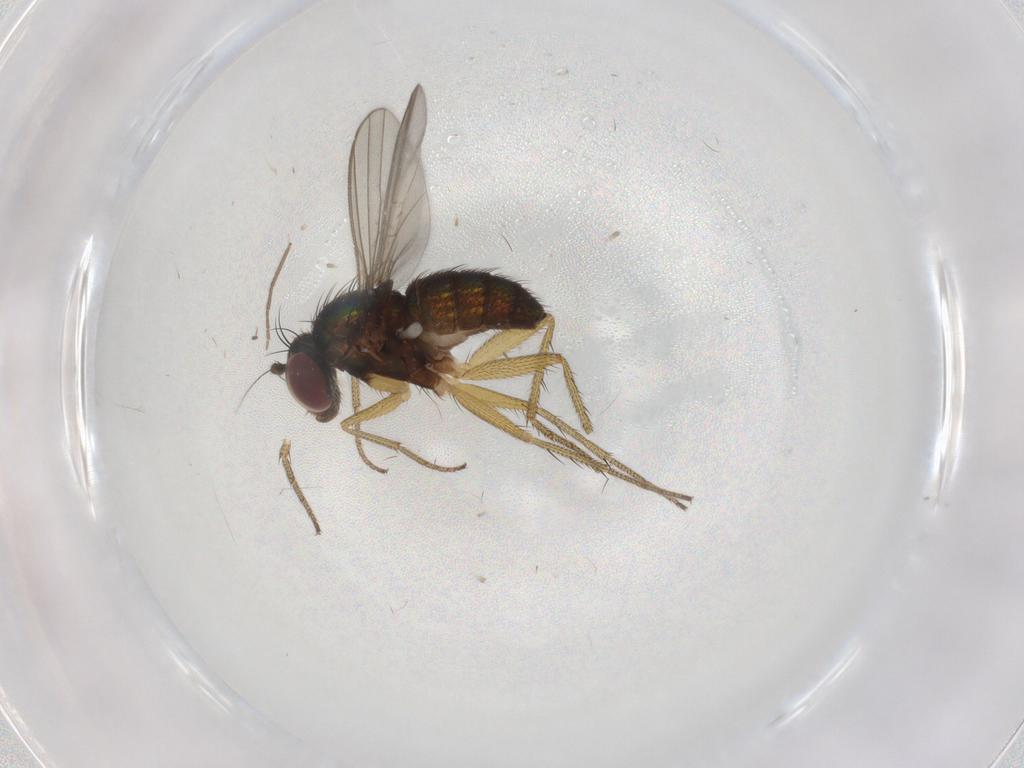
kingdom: Animalia
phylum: Arthropoda
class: Insecta
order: Diptera
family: Dolichopodidae
